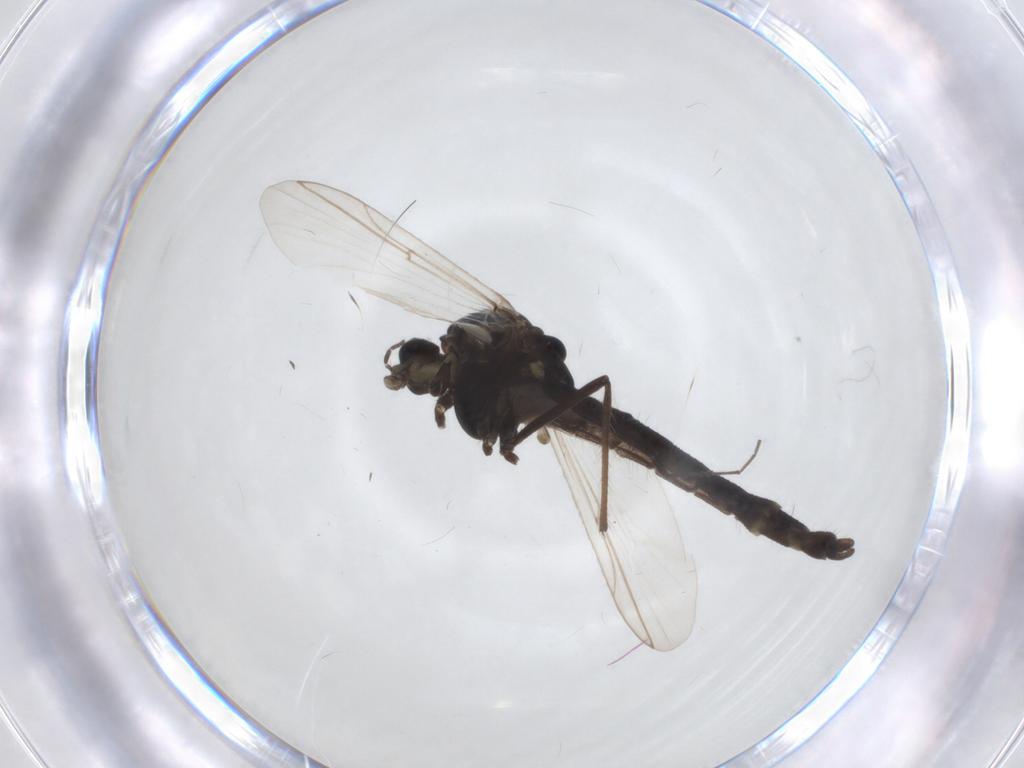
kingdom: Animalia
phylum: Arthropoda
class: Insecta
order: Diptera
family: Chironomidae
